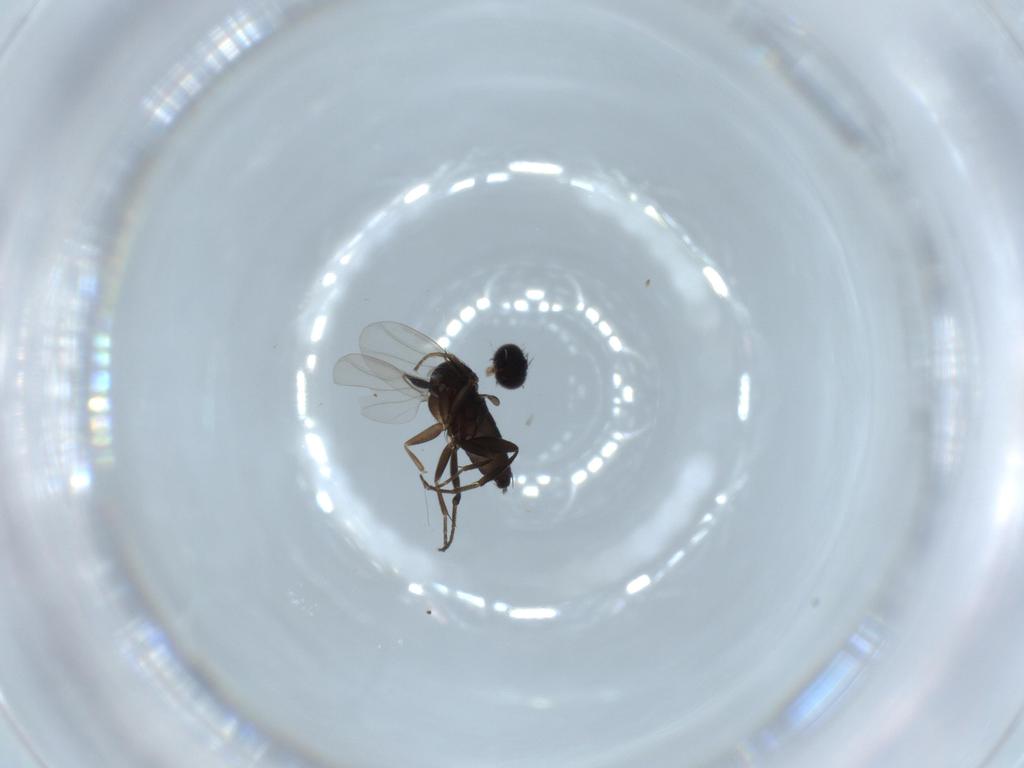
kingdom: Animalia
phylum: Arthropoda
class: Insecta
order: Diptera
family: Phoridae
